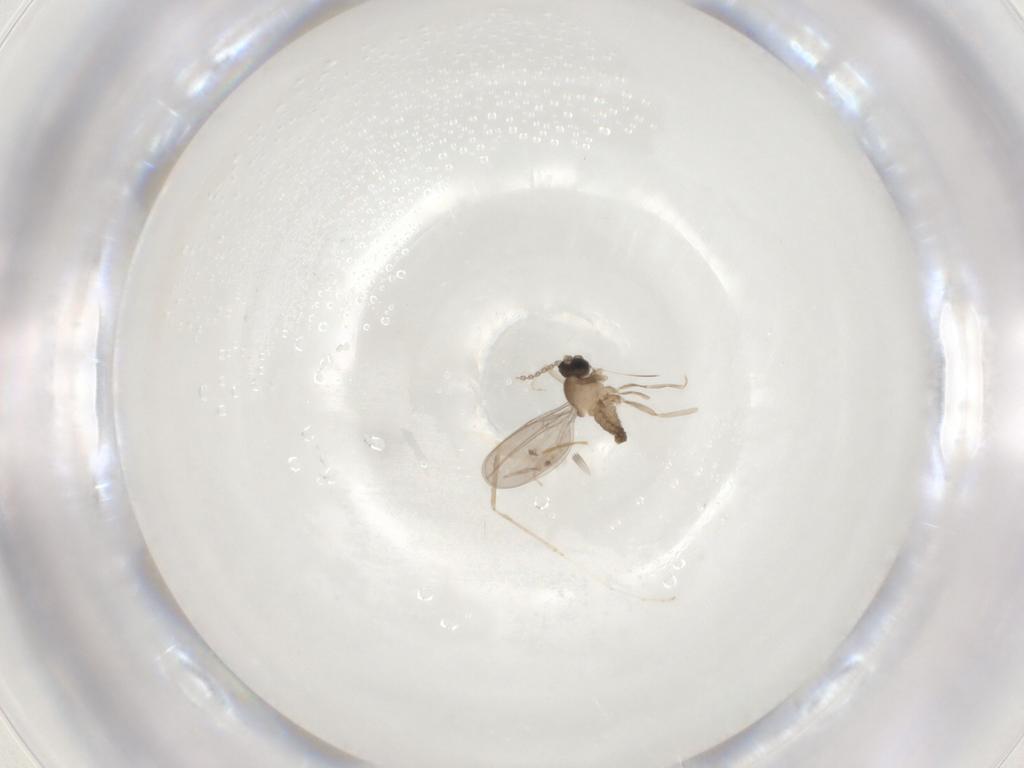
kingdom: Animalia
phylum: Arthropoda
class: Insecta
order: Diptera
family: Cecidomyiidae
